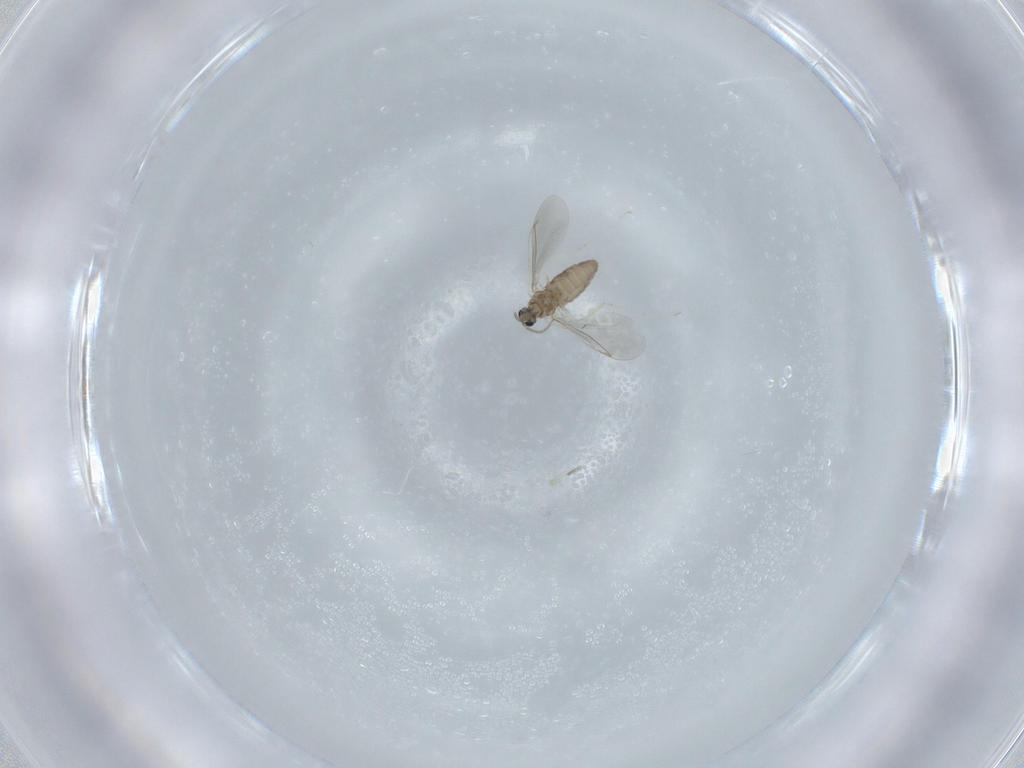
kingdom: Animalia
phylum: Arthropoda
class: Insecta
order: Diptera
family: Cecidomyiidae
